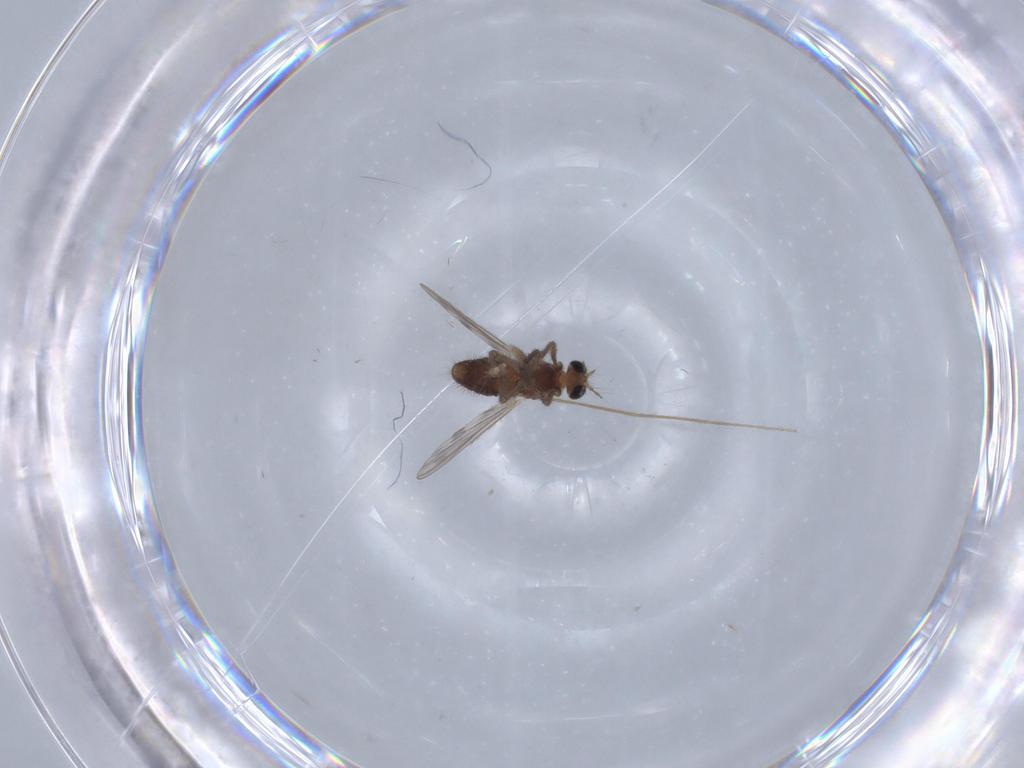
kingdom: Animalia
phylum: Arthropoda
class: Insecta
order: Diptera
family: Chironomidae
